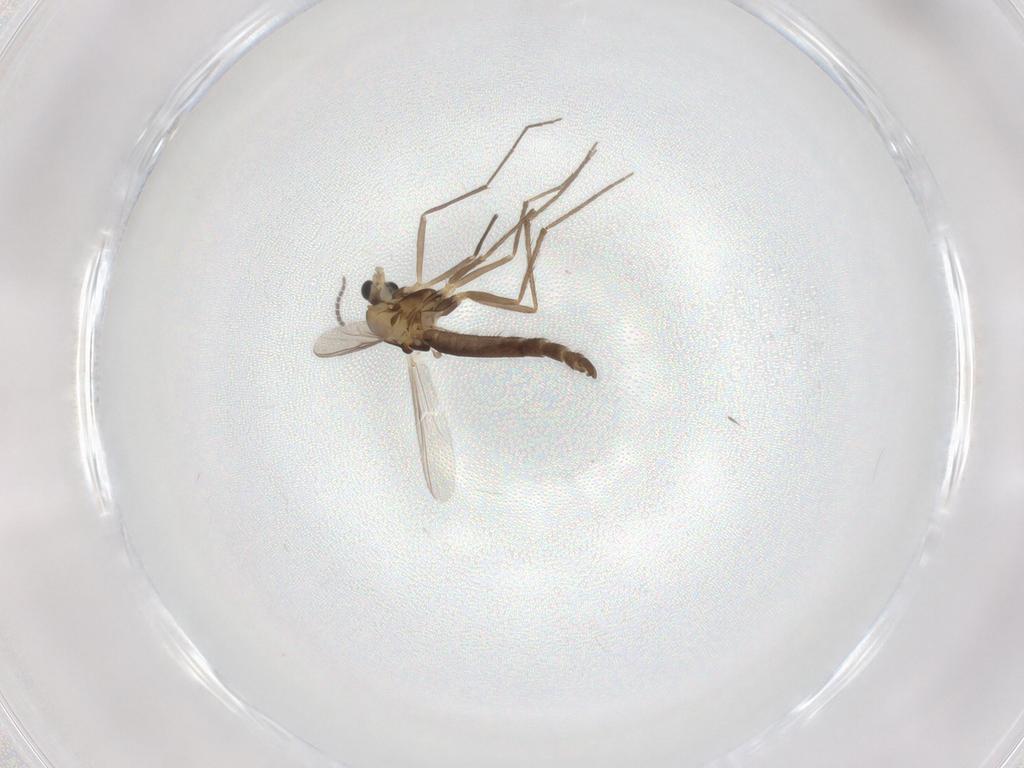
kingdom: Animalia
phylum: Arthropoda
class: Insecta
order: Diptera
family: Chironomidae
